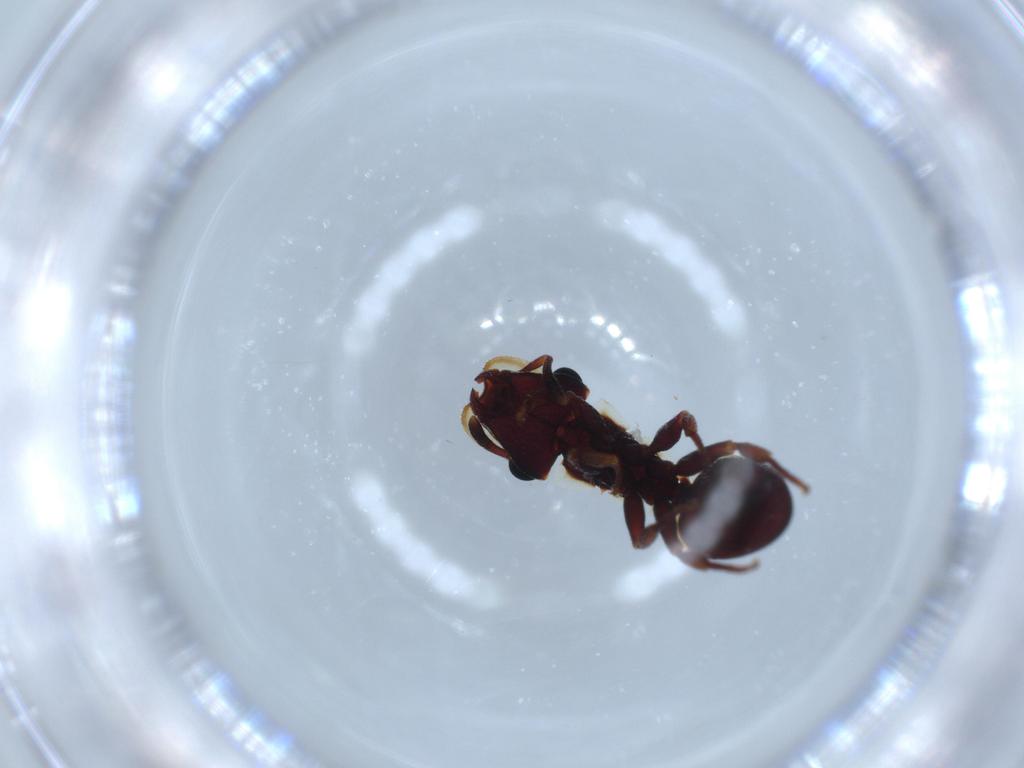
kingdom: Animalia
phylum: Arthropoda
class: Insecta
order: Hymenoptera
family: Formicidae
